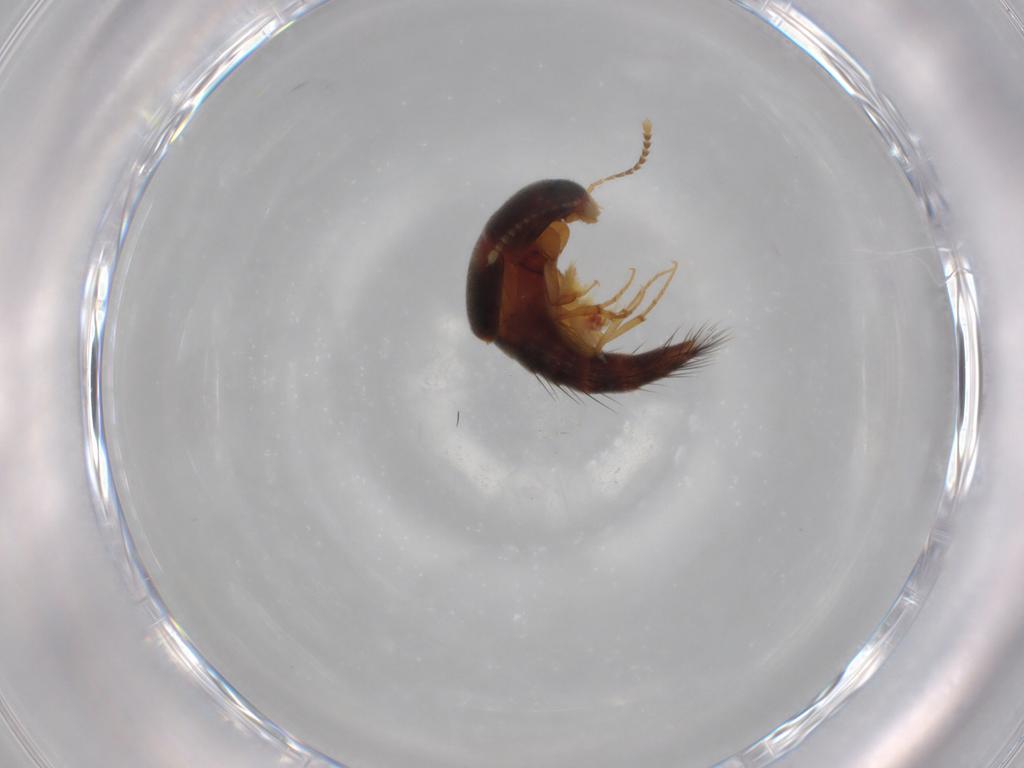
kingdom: Animalia
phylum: Arthropoda
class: Insecta
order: Coleoptera
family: Staphylinidae
